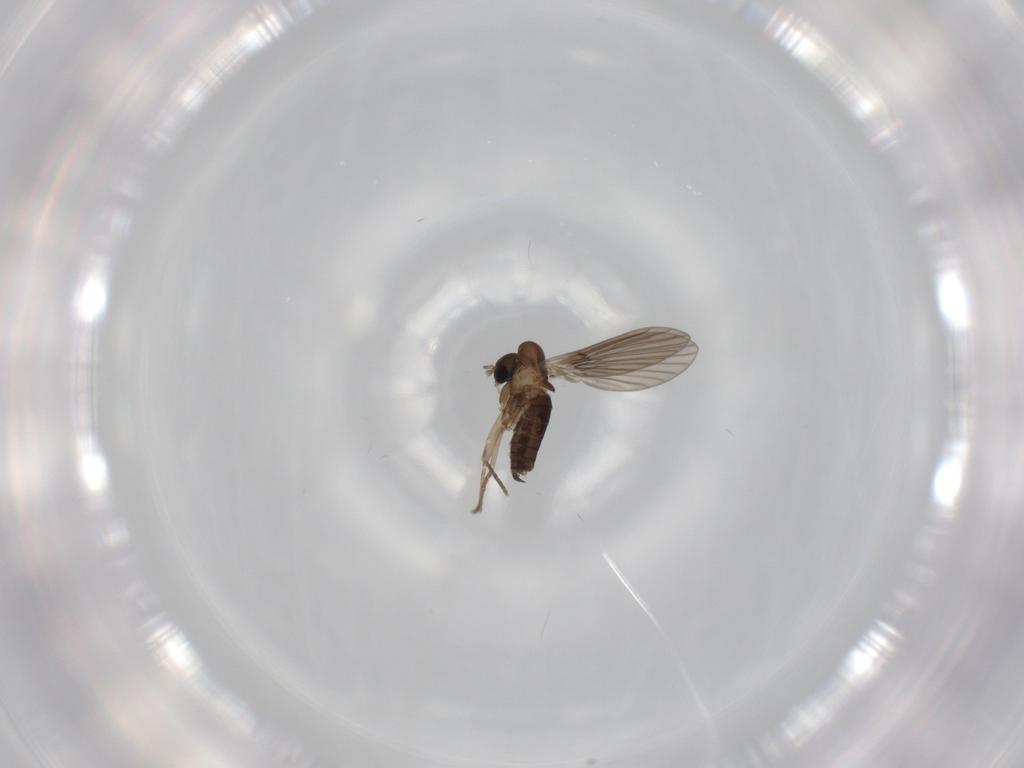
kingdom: Animalia
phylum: Arthropoda
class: Insecta
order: Diptera
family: Phoridae
